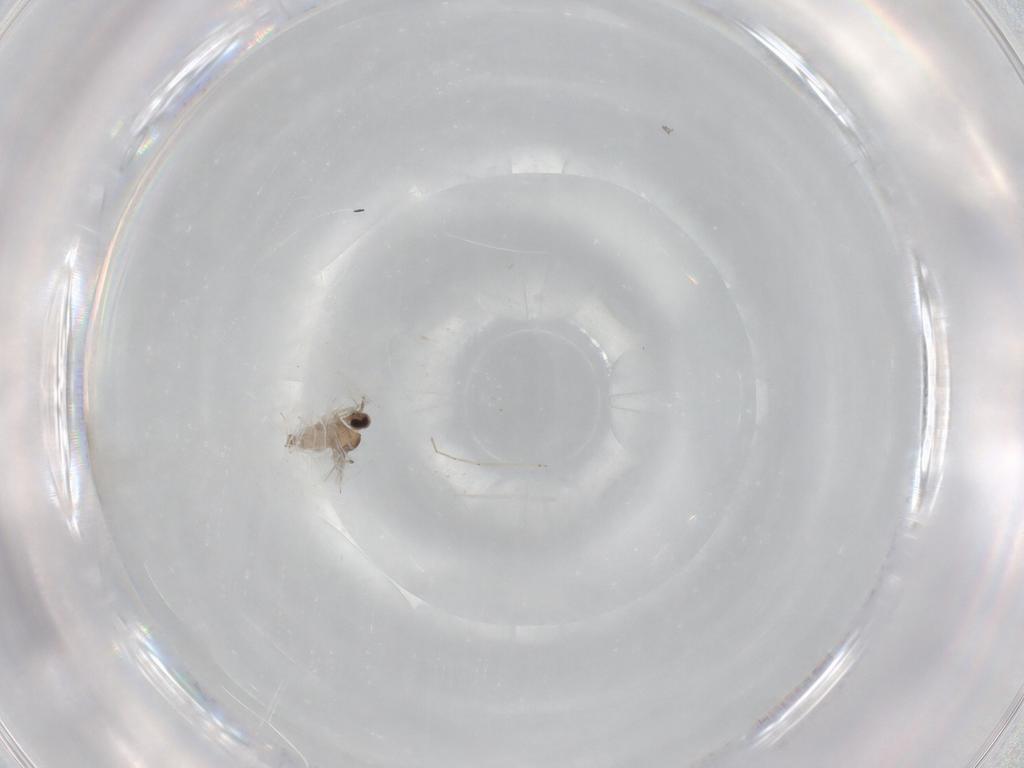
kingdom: Animalia
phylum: Arthropoda
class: Insecta
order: Diptera
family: Cecidomyiidae
